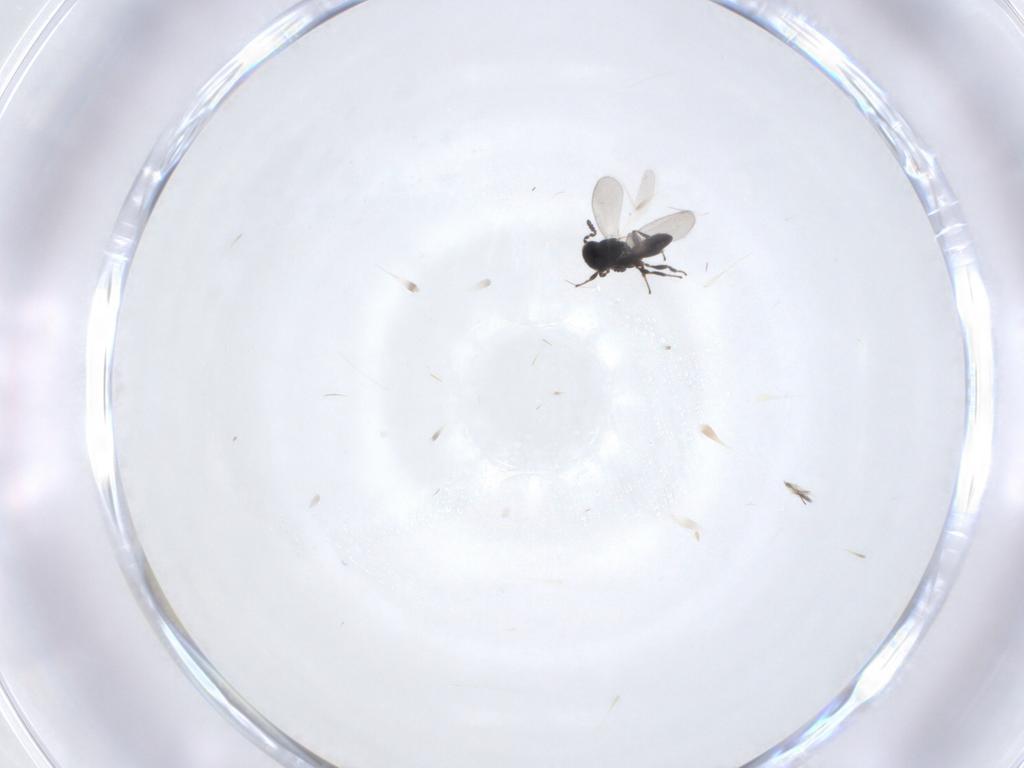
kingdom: Animalia
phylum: Arthropoda
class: Insecta
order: Hymenoptera
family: Platygastridae
